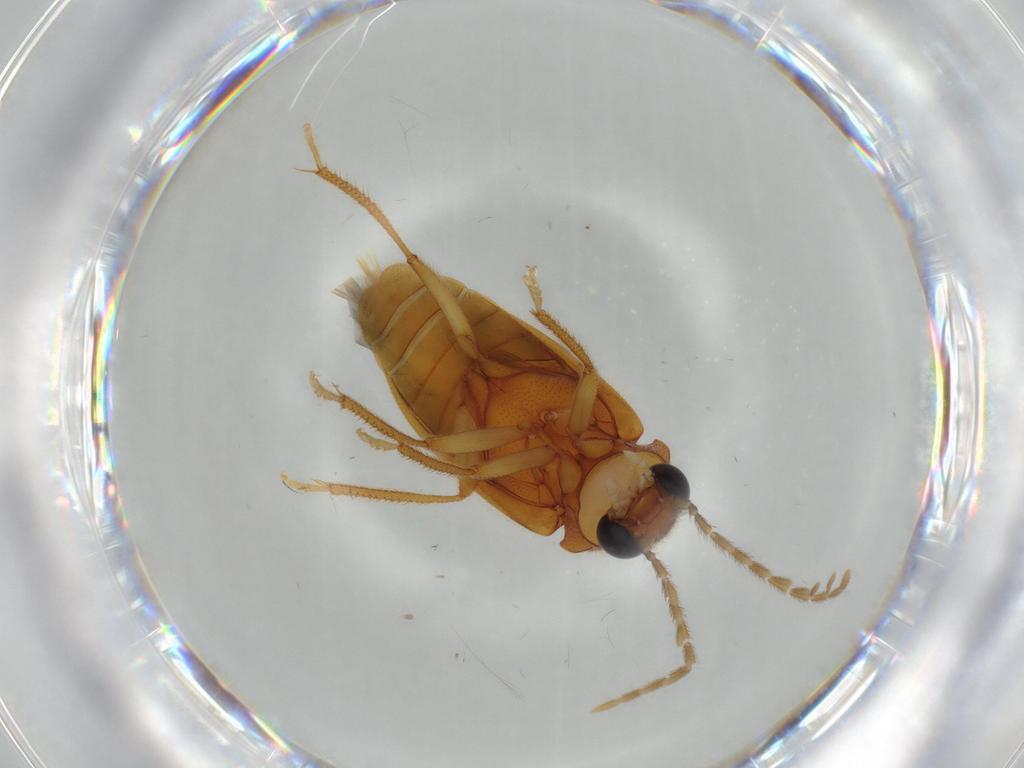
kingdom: Animalia
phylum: Arthropoda
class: Insecta
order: Coleoptera
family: Ptilodactylidae
